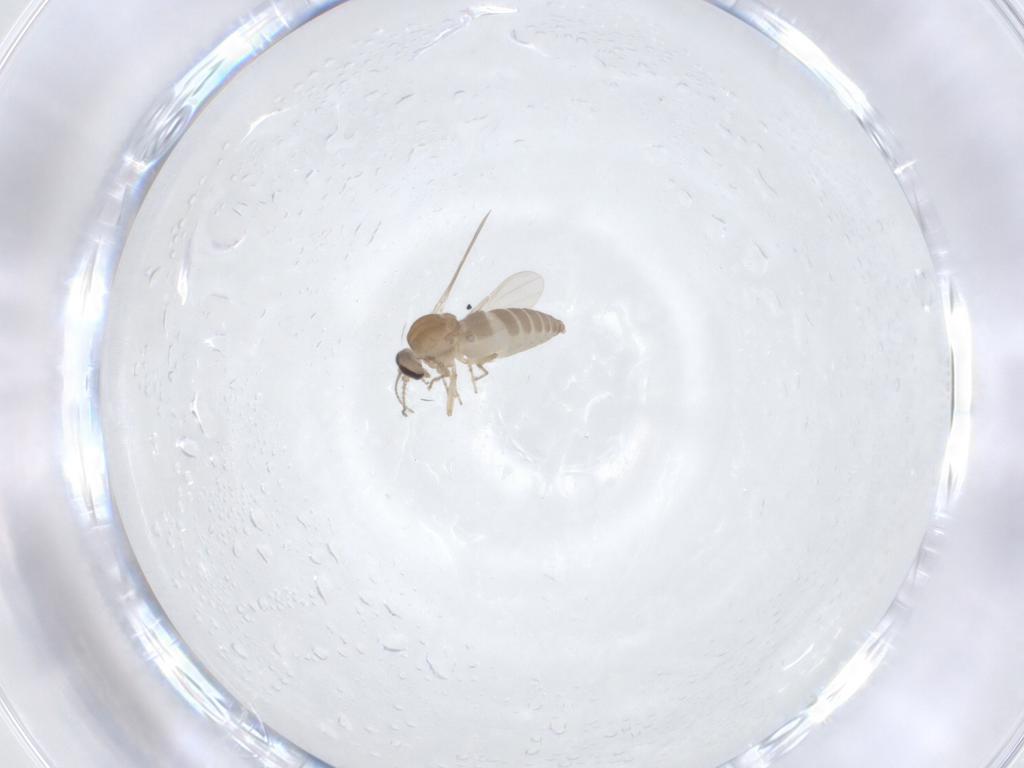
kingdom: Animalia
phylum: Arthropoda
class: Insecta
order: Diptera
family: Ceratopogonidae
